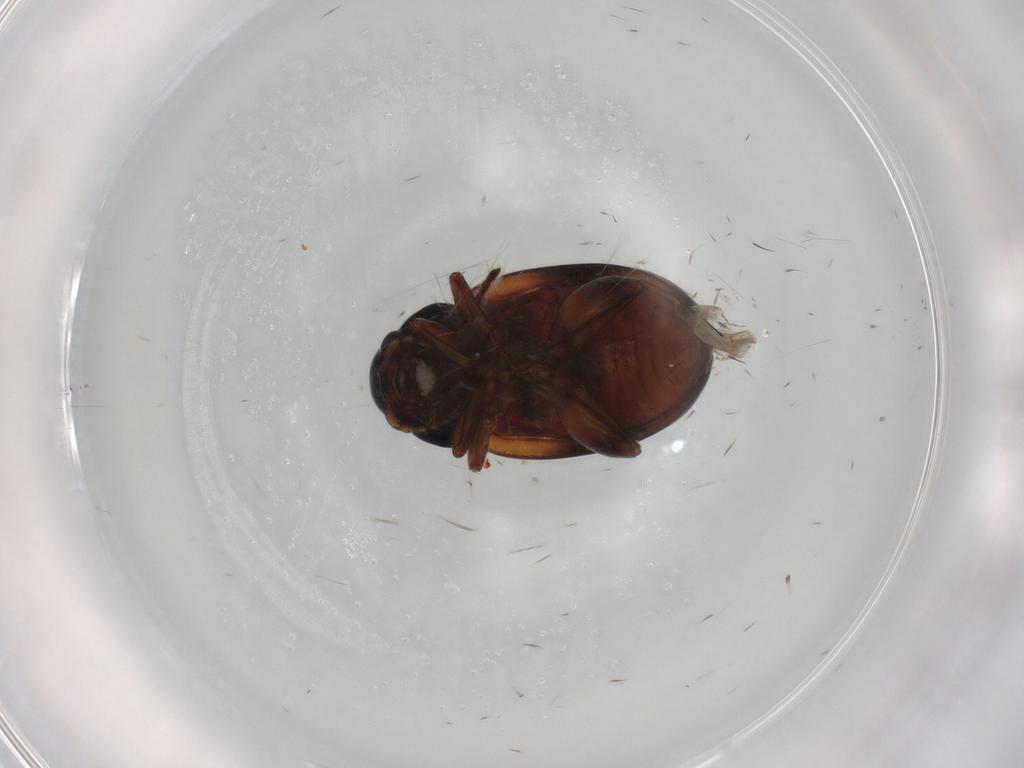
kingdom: Animalia
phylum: Arthropoda
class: Insecta
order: Coleoptera
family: Chrysomelidae
